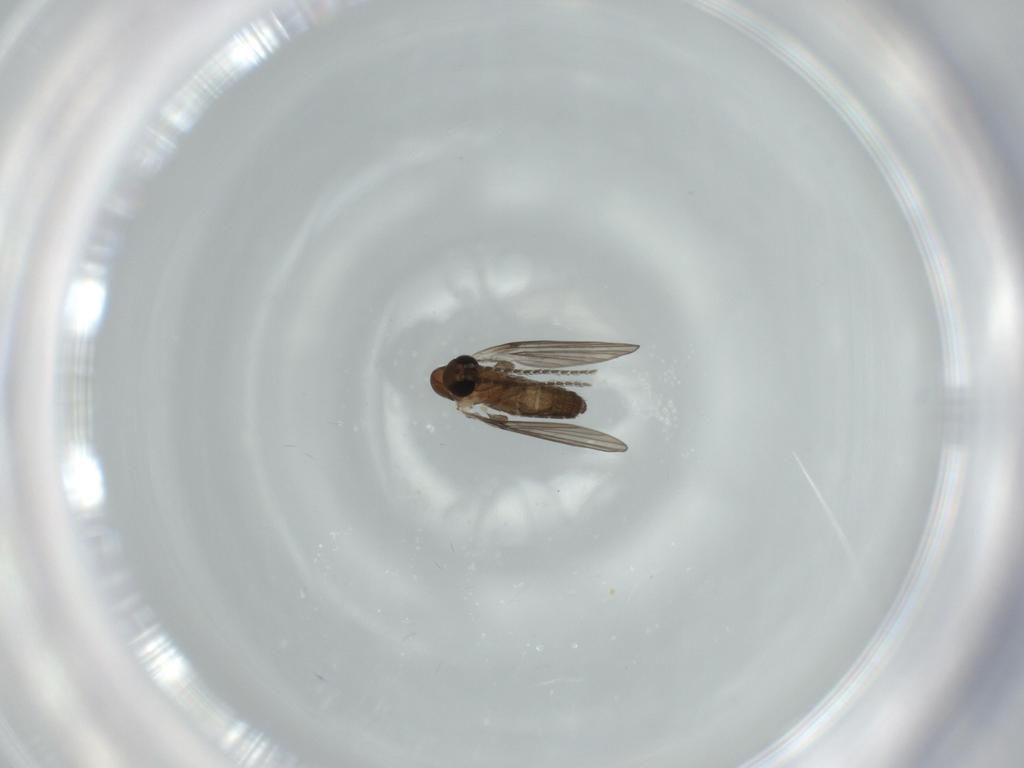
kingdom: Animalia
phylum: Arthropoda
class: Insecta
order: Diptera
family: Psychodidae
